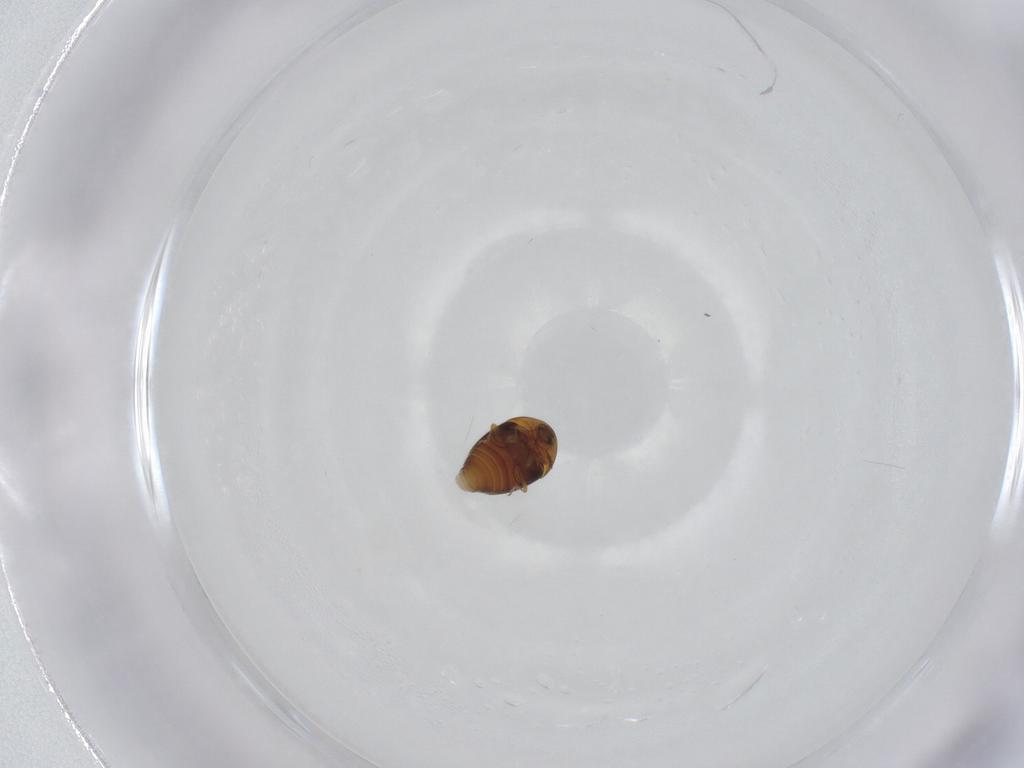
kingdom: Animalia
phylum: Arthropoda
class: Insecta
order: Coleoptera
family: Corylophidae
